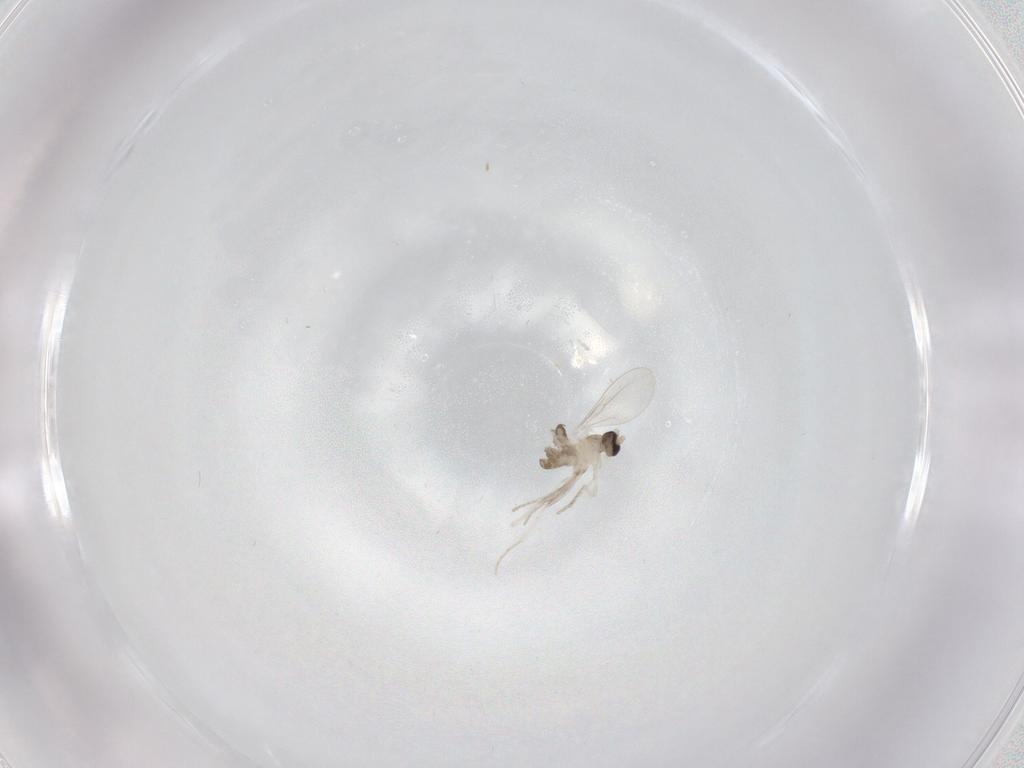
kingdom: Animalia
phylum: Arthropoda
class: Insecta
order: Diptera
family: Cecidomyiidae
